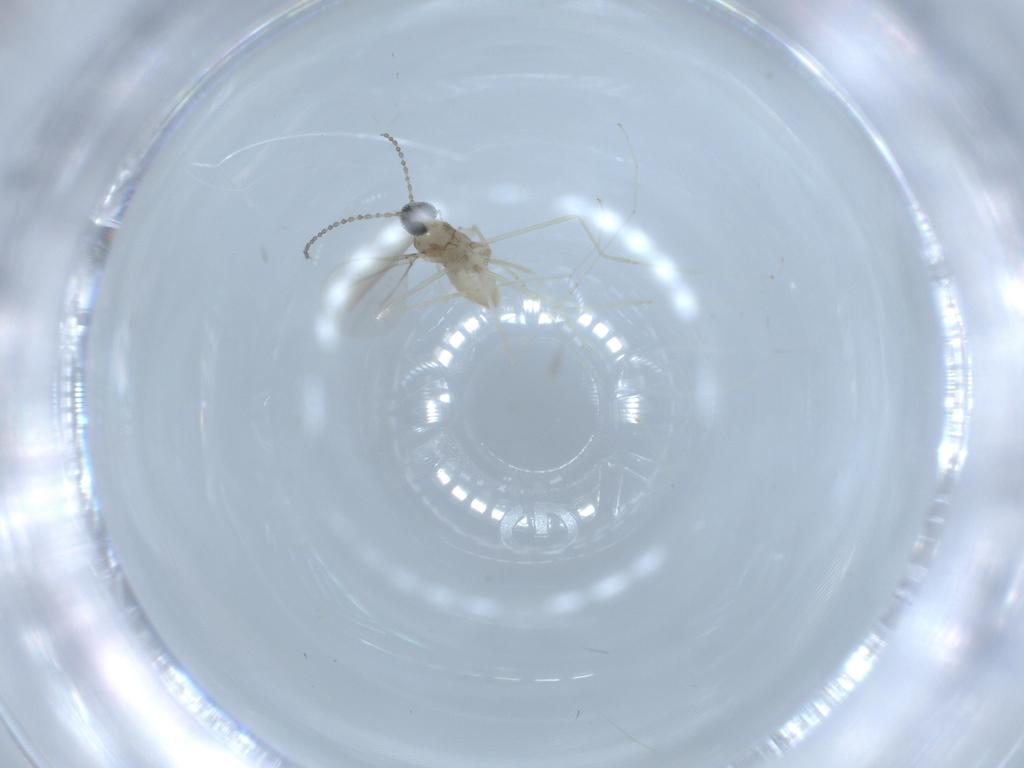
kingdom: Animalia
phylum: Arthropoda
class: Insecta
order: Diptera
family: Cecidomyiidae
